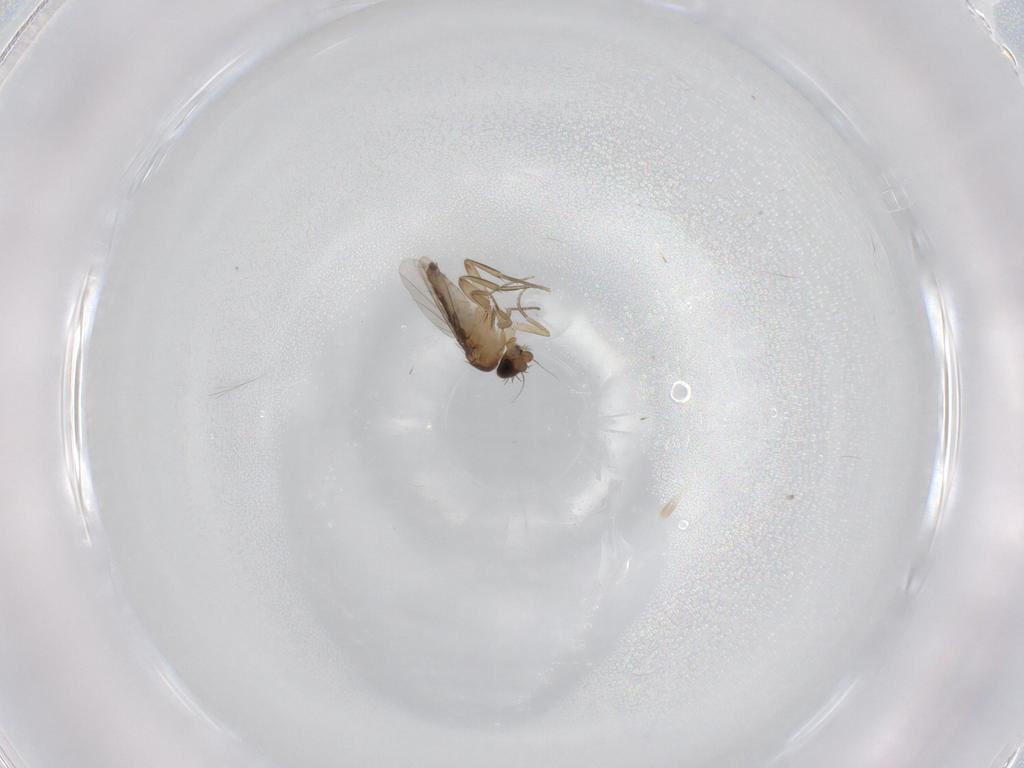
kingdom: Animalia
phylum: Arthropoda
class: Insecta
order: Diptera
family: Phoridae
